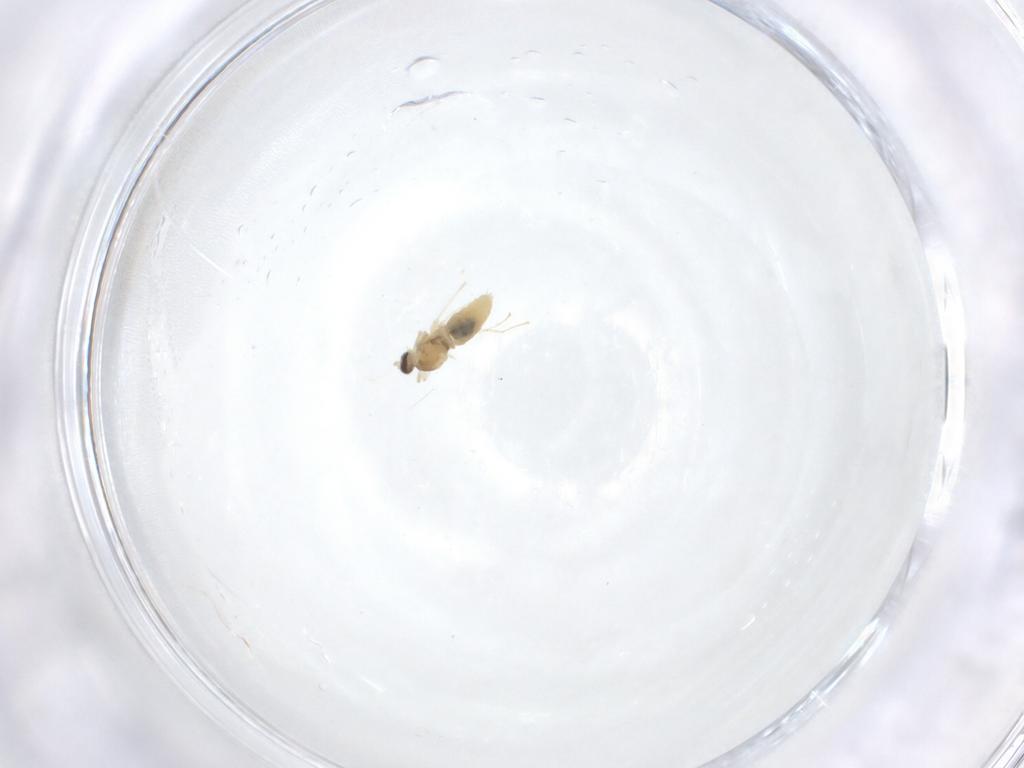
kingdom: Animalia
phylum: Arthropoda
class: Insecta
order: Diptera
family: Cecidomyiidae
